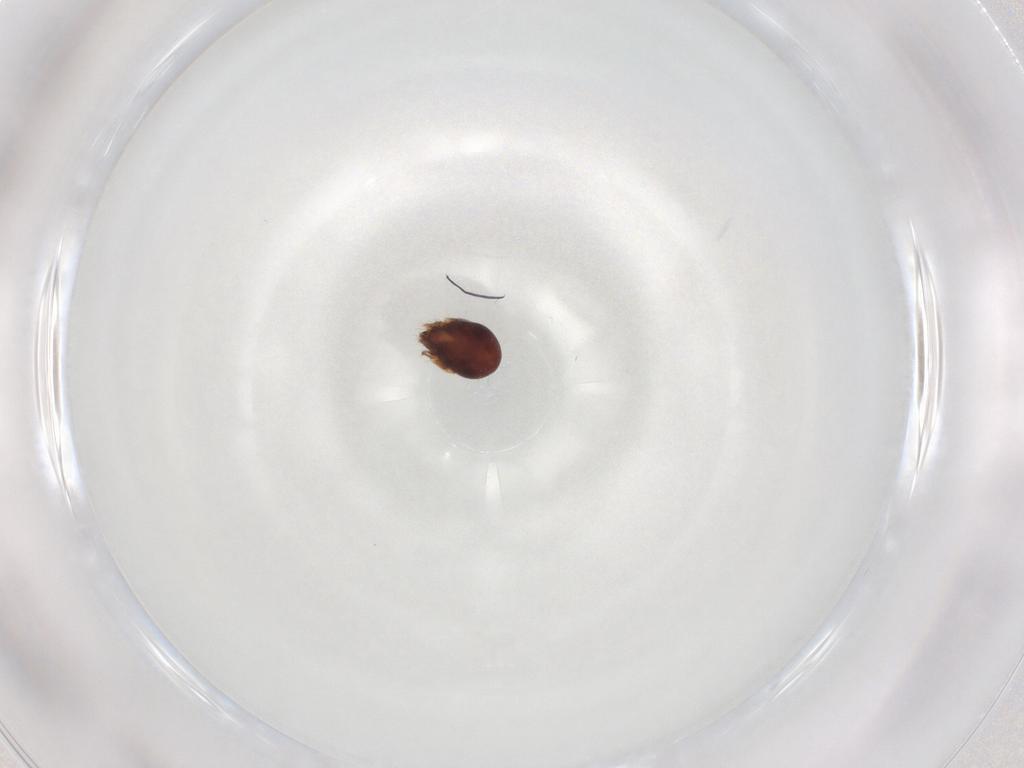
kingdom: Animalia
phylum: Arthropoda
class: Arachnida
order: Sarcoptiformes
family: Ceratozetidae
